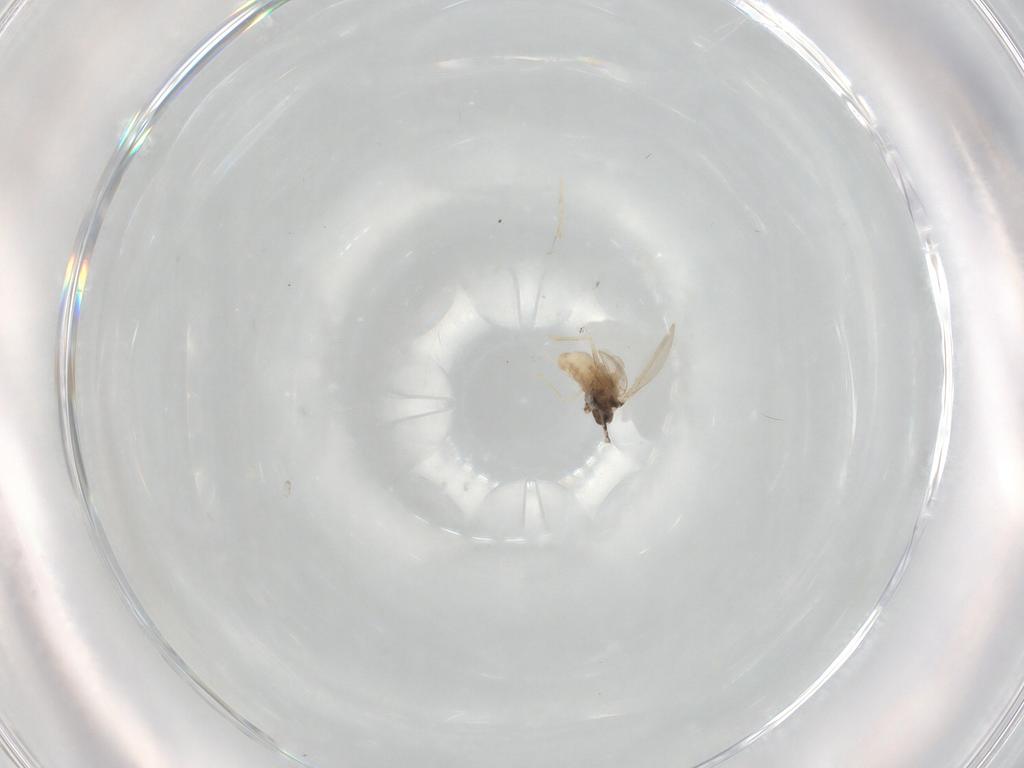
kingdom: Animalia
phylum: Arthropoda
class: Insecta
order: Diptera
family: Cecidomyiidae
